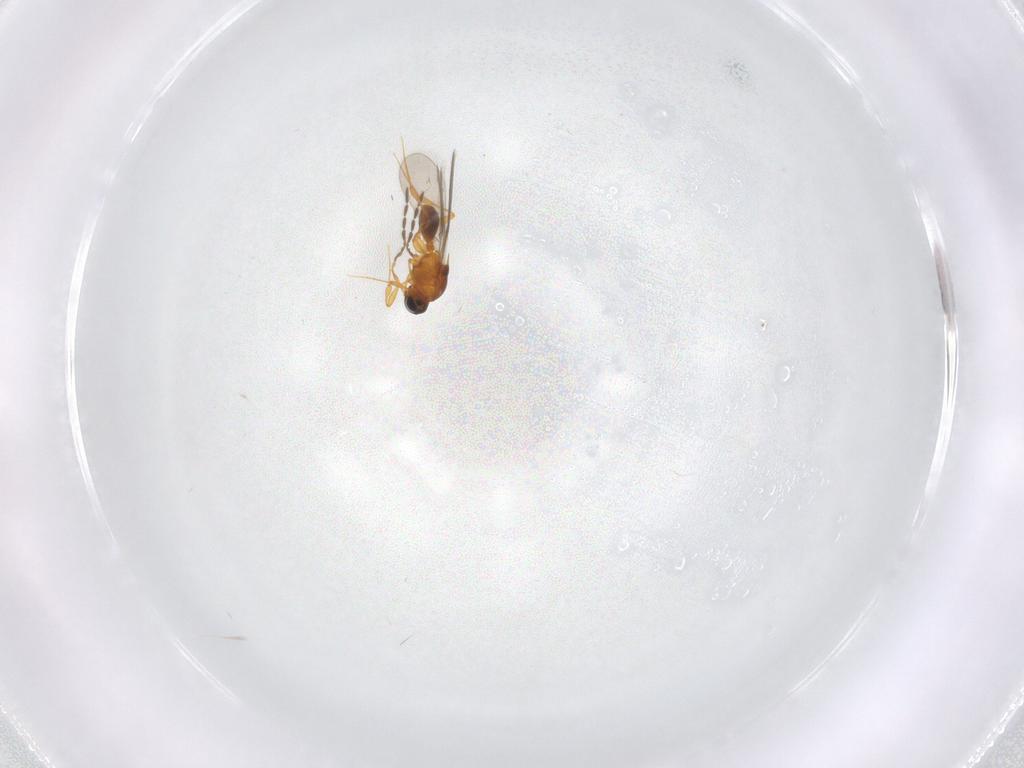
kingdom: Animalia
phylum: Arthropoda
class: Insecta
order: Hymenoptera
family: Platygastridae
